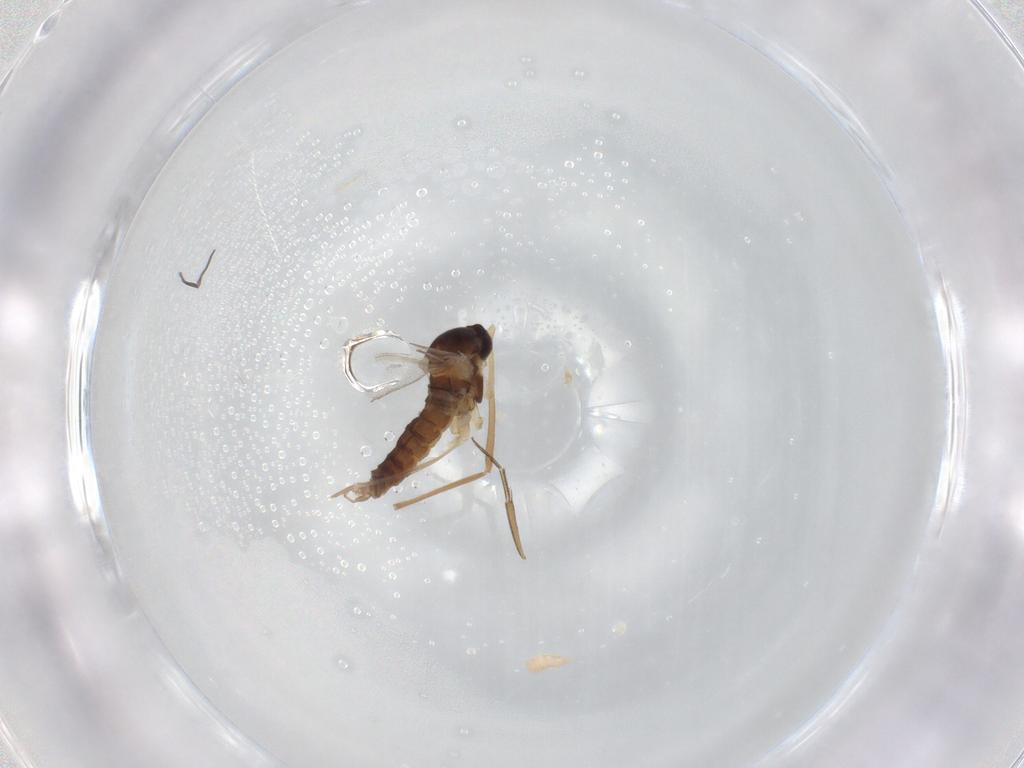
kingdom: Animalia
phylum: Arthropoda
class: Insecta
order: Diptera
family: Cecidomyiidae
